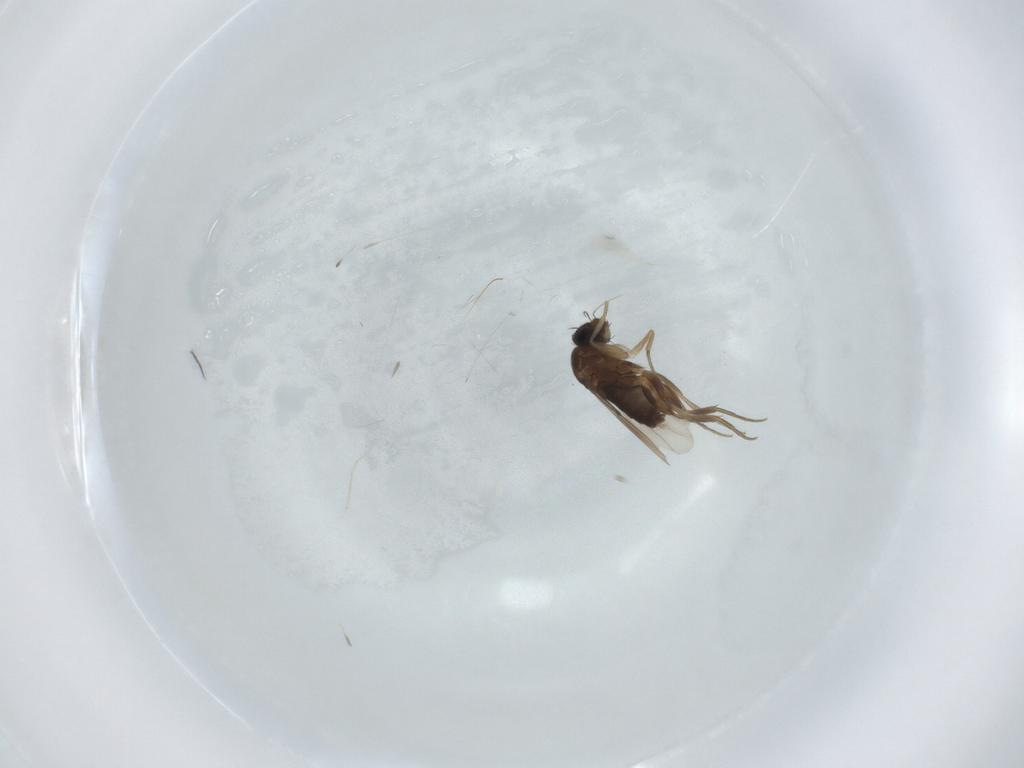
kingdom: Animalia
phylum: Arthropoda
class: Insecta
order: Diptera
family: Phoridae
